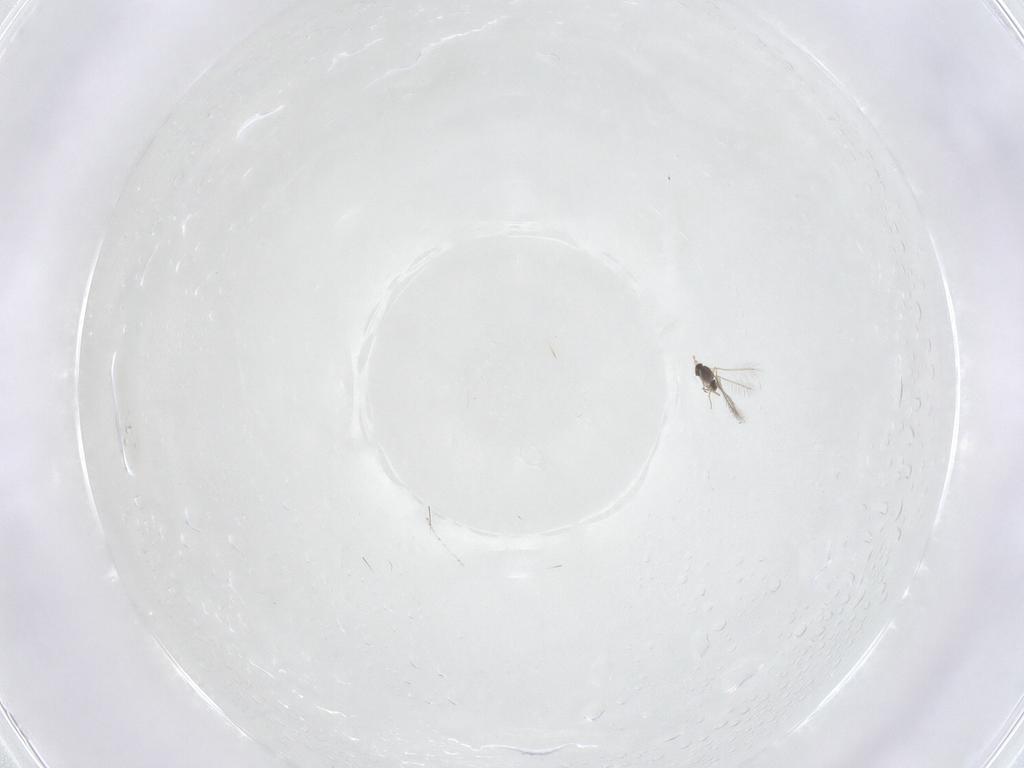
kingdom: Animalia
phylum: Arthropoda
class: Insecta
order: Hymenoptera
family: Mymaridae
